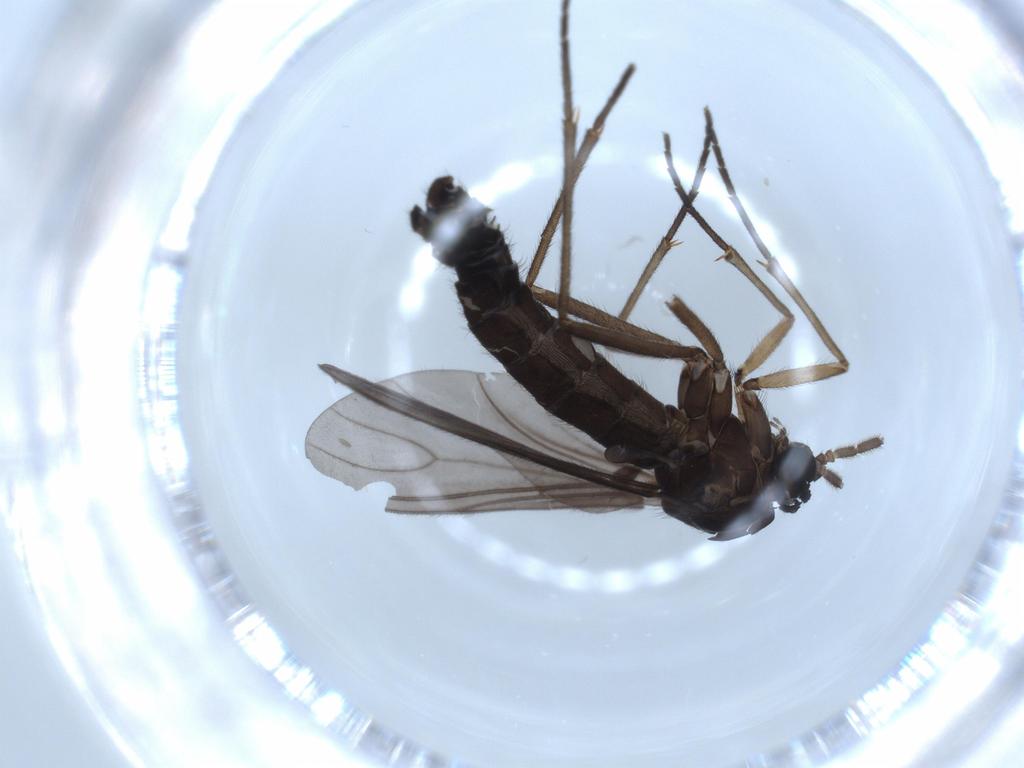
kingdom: Animalia
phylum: Arthropoda
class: Insecta
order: Diptera
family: Sciaridae
